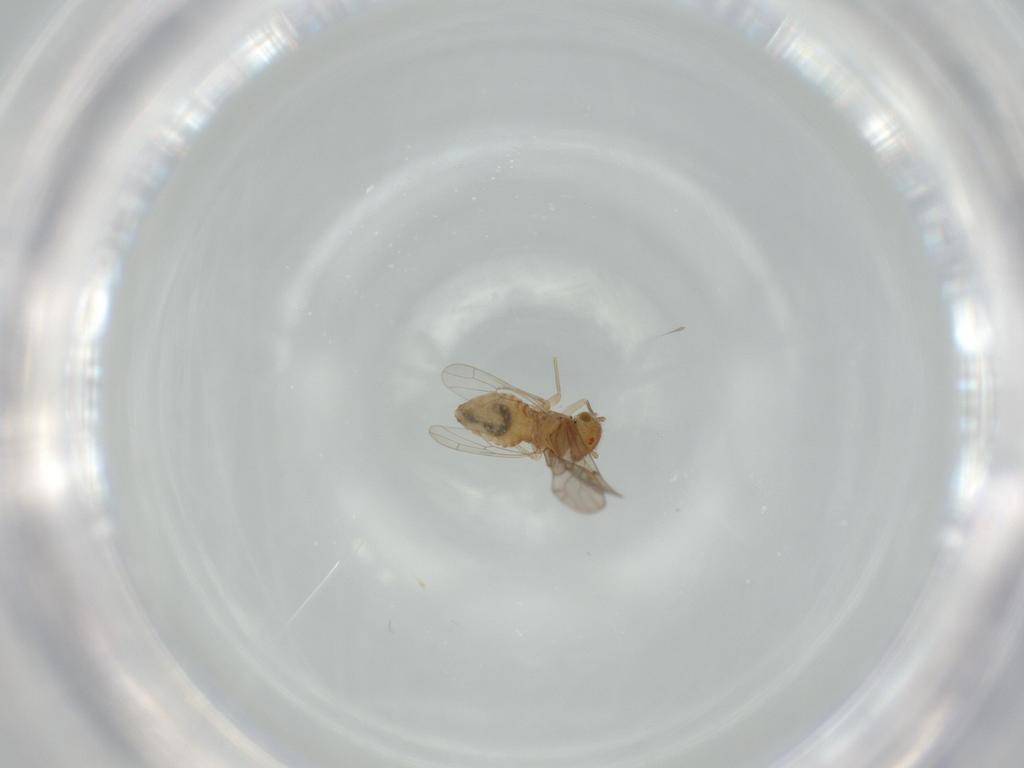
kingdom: Animalia
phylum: Arthropoda
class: Insecta
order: Psocodea
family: Ectopsocidae
